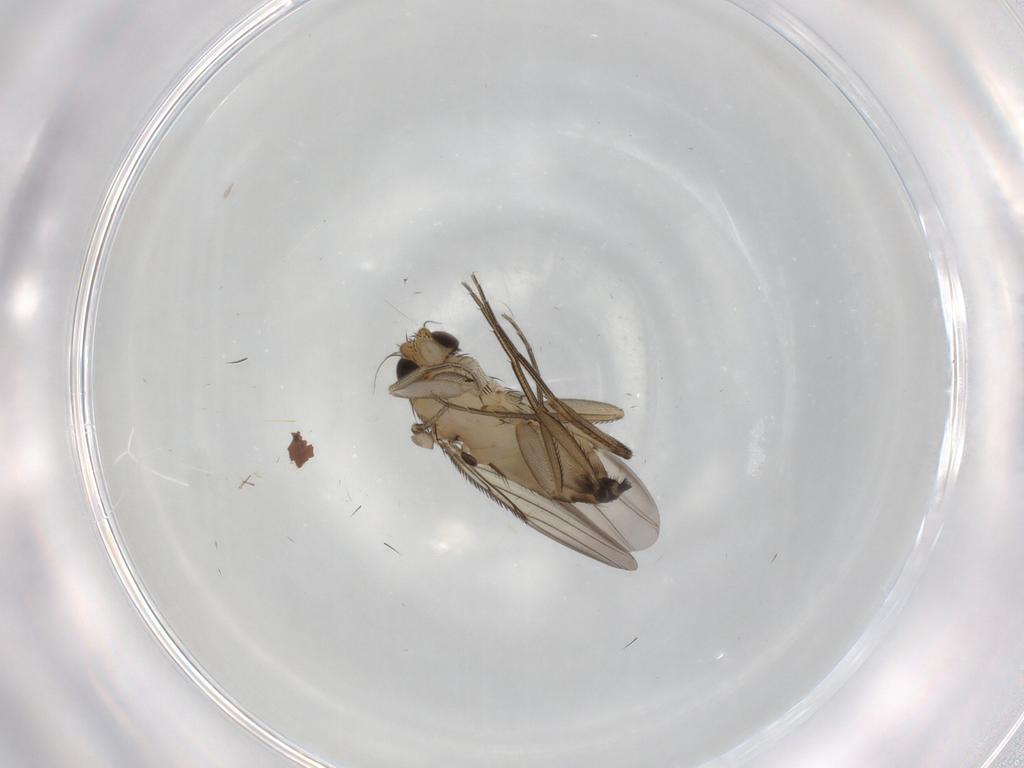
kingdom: Animalia
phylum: Arthropoda
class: Insecta
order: Diptera
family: Phoridae
